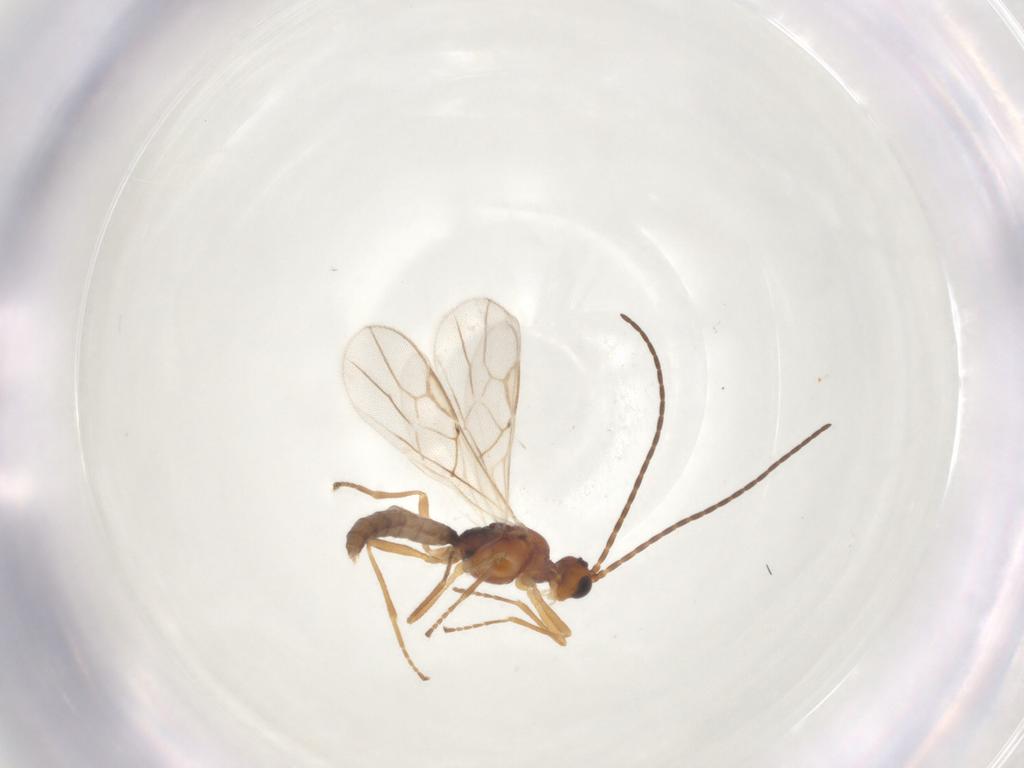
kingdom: Animalia
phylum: Arthropoda
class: Insecta
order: Hymenoptera
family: Braconidae
